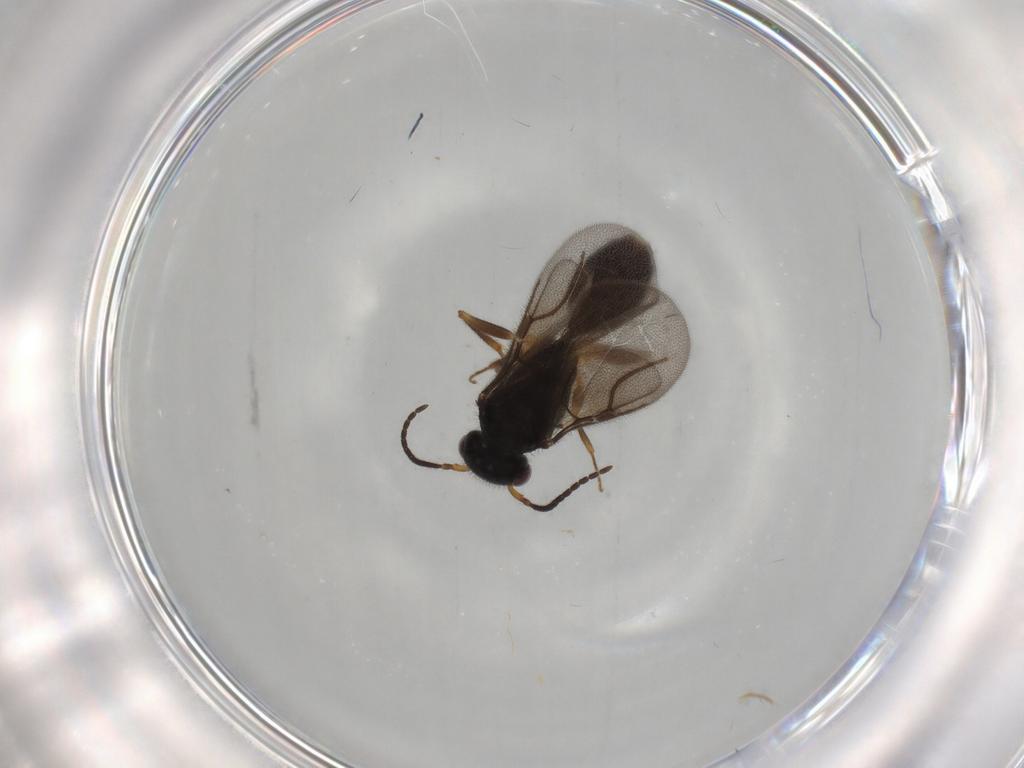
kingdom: Animalia
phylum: Arthropoda
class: Insecta
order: Hymenoptera
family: Bethylidae
